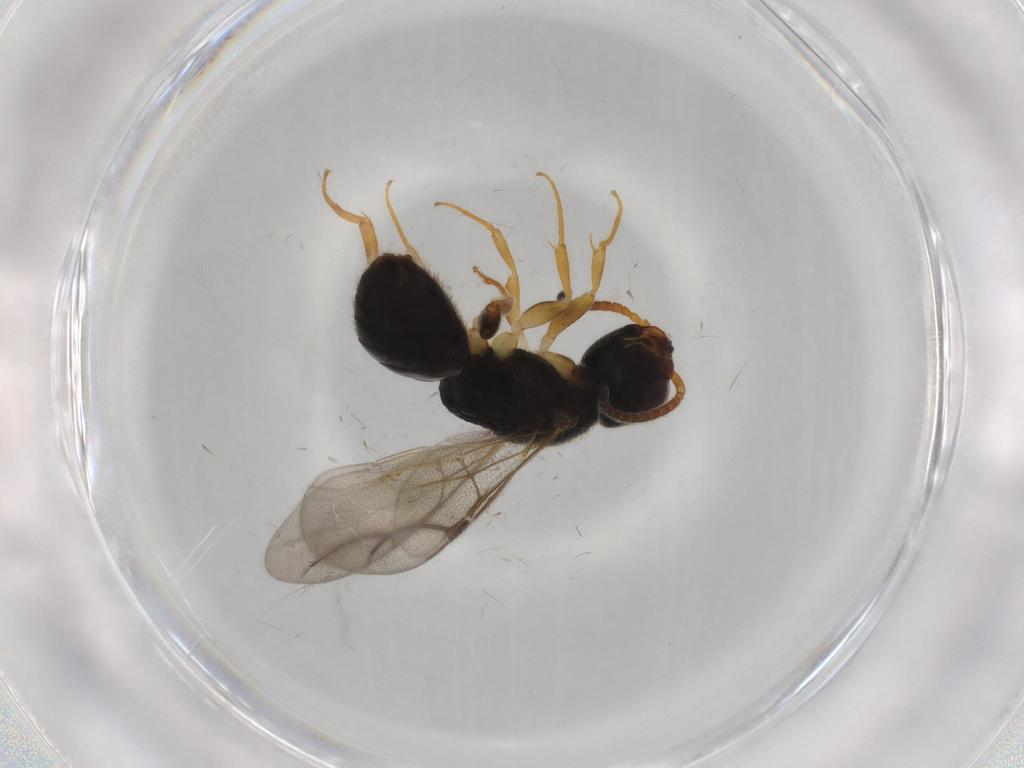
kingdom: Animalia
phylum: Arthropoda
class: Insecta
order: Hymenoptera
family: Bethylidae
